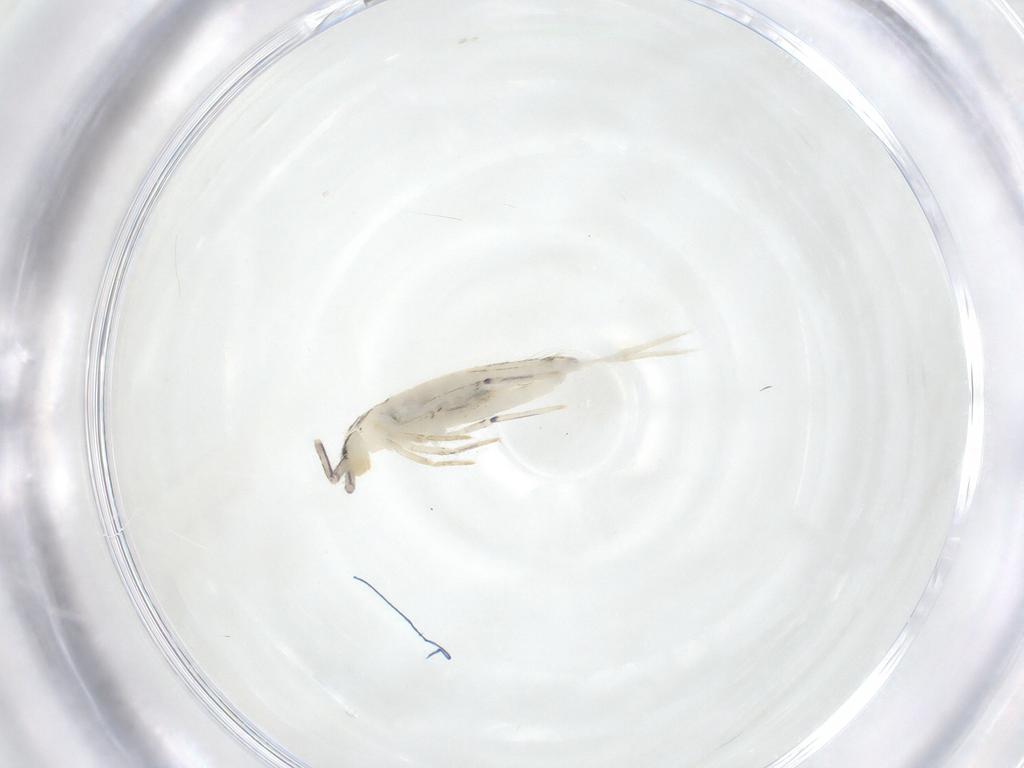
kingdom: Animalia
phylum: Arthropoda
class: Collembola
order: Entomobryomorpha
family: Entomobryidae
